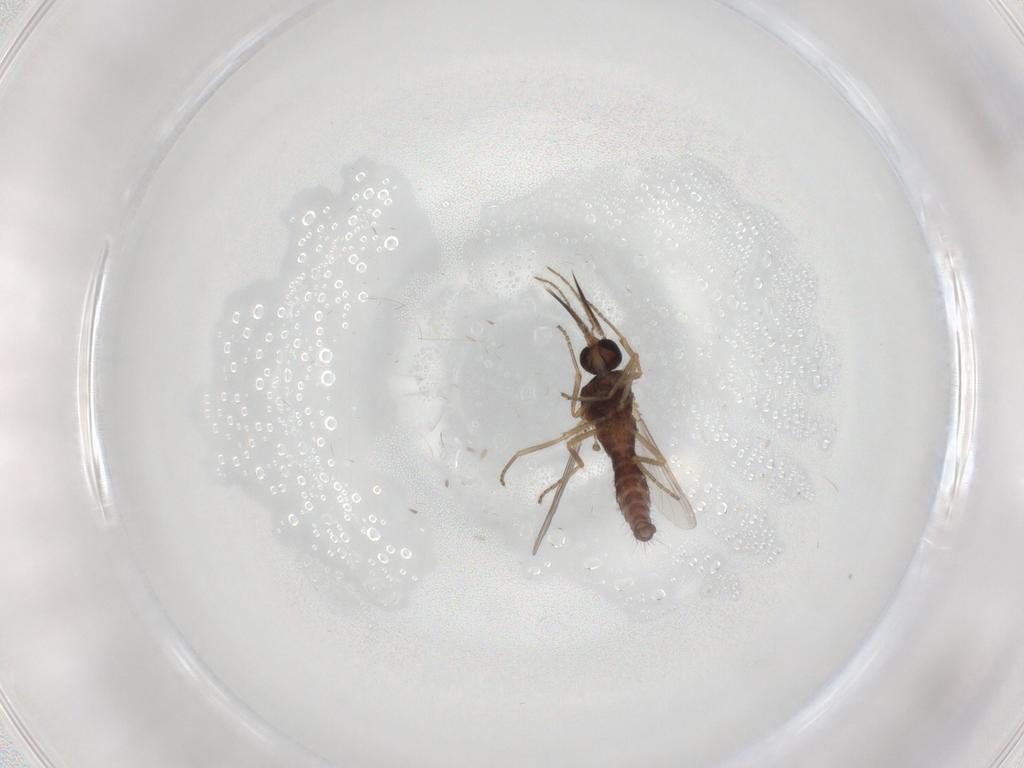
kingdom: Animalia
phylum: Arthropoda
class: Insecta
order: Diptera
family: Ceratopogonidae
